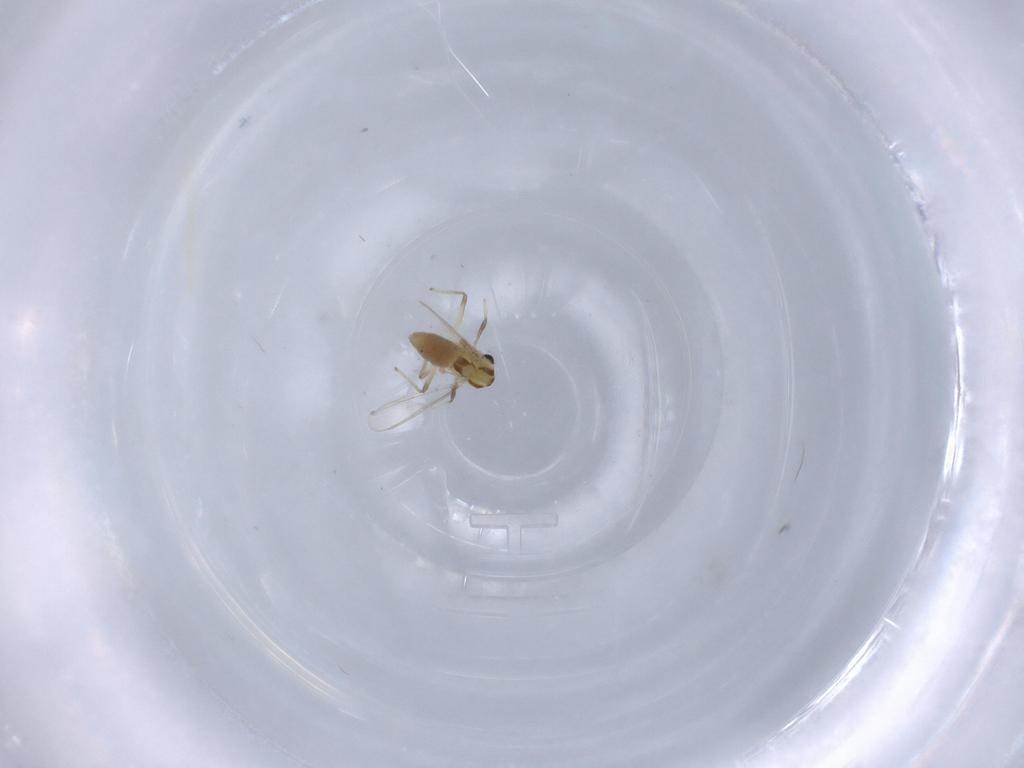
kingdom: Animalia
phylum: Arthropoda
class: Insecta
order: Diptera
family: Chironomidae
